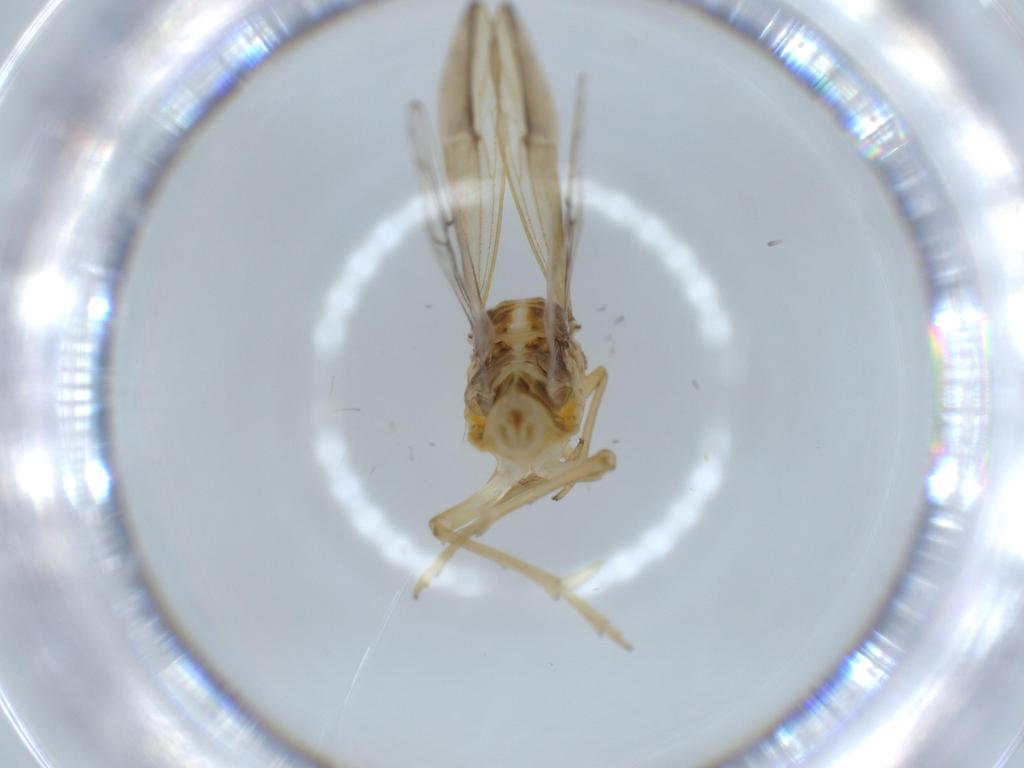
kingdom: Animalia
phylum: Arthropoda
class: Insecta
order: Hemiptera
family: Delphacidae
